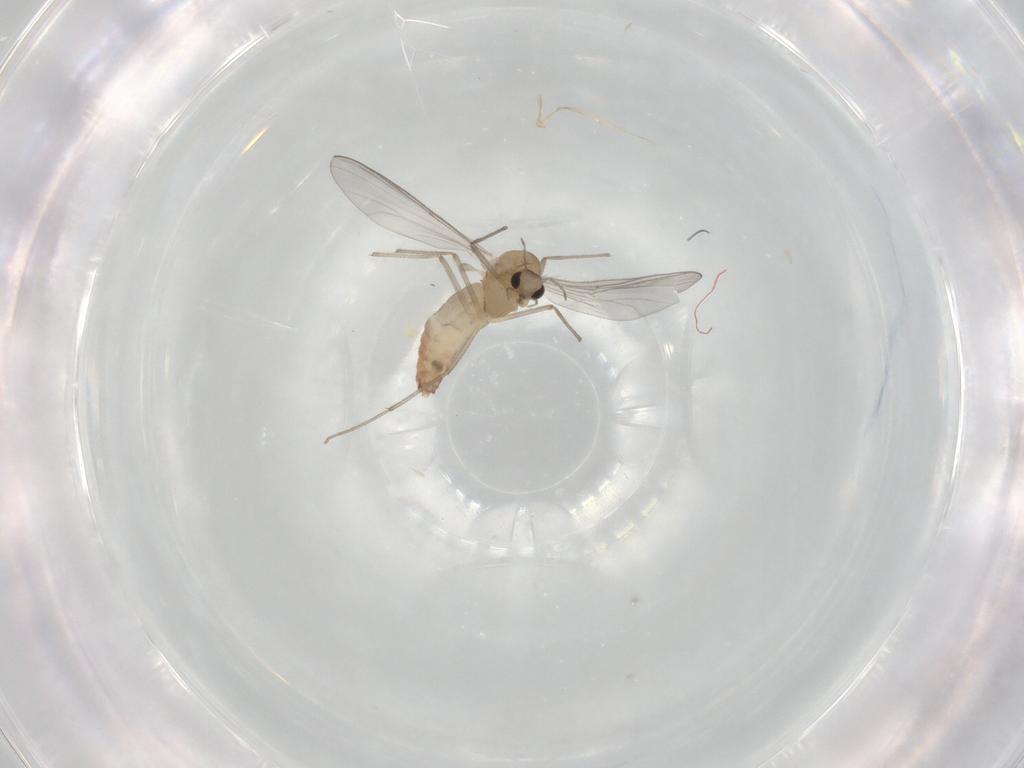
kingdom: Animalia
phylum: Arthropoda
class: Insecta
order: Diptera
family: Chironomidae
